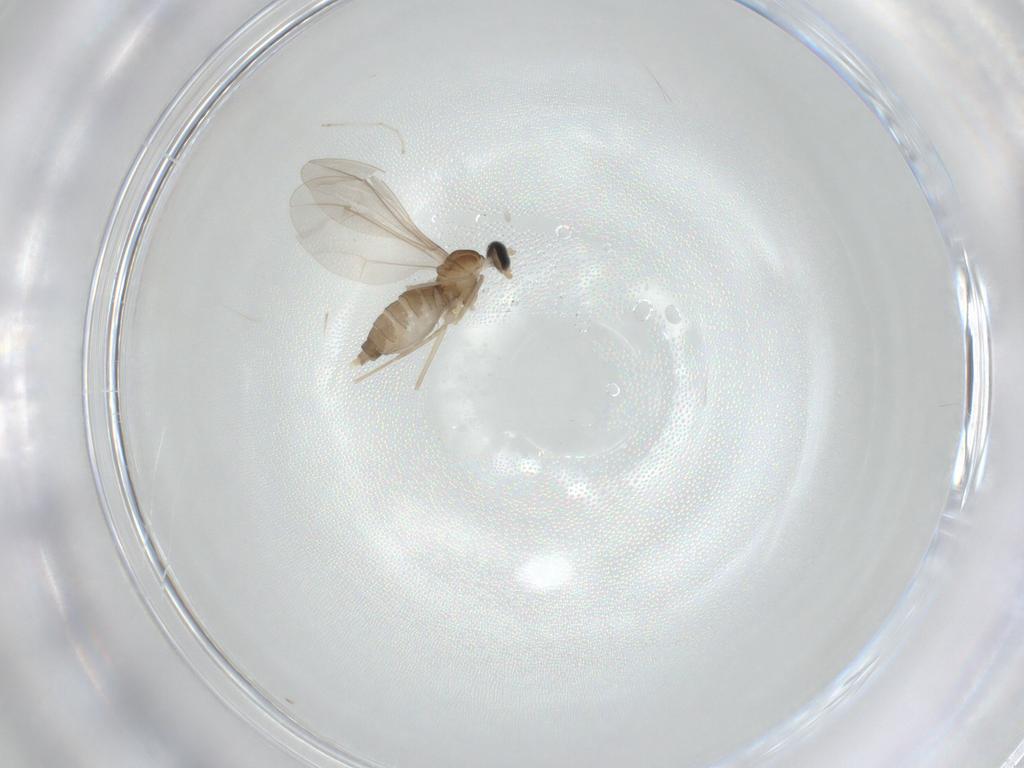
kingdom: Animalia
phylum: Arthropoda
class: Insecta
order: Diptera
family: Cecidomyiidae
